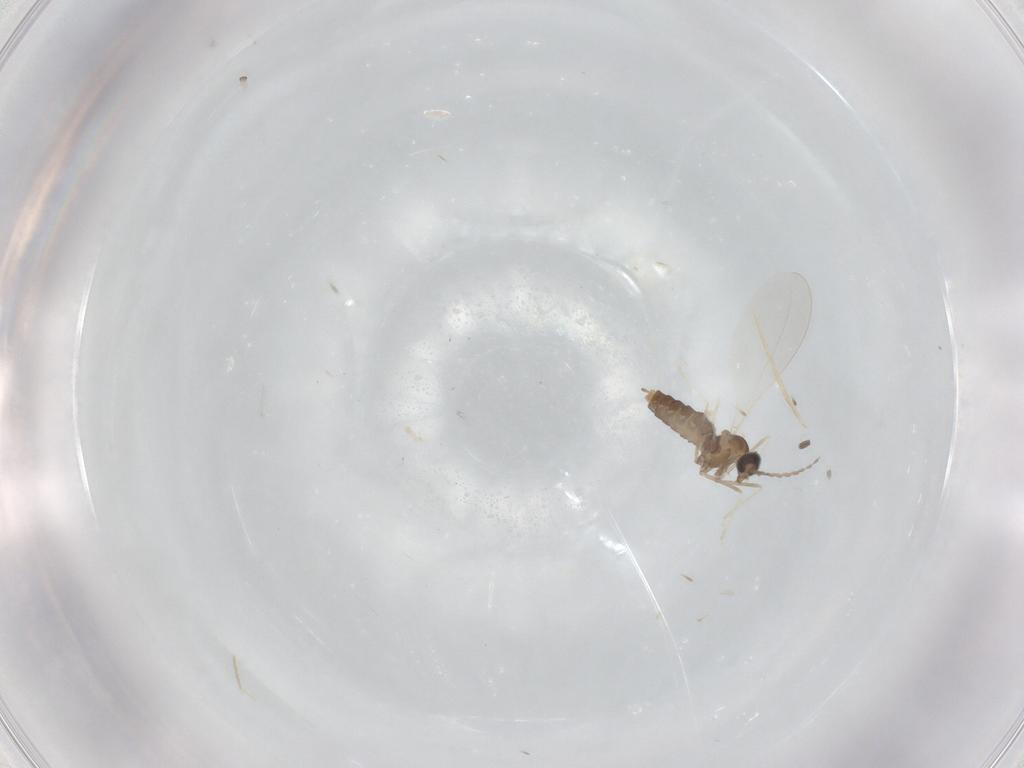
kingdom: Animalia
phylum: Arthropoda
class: Insecta
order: Diptera
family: Cecidomyiidae
